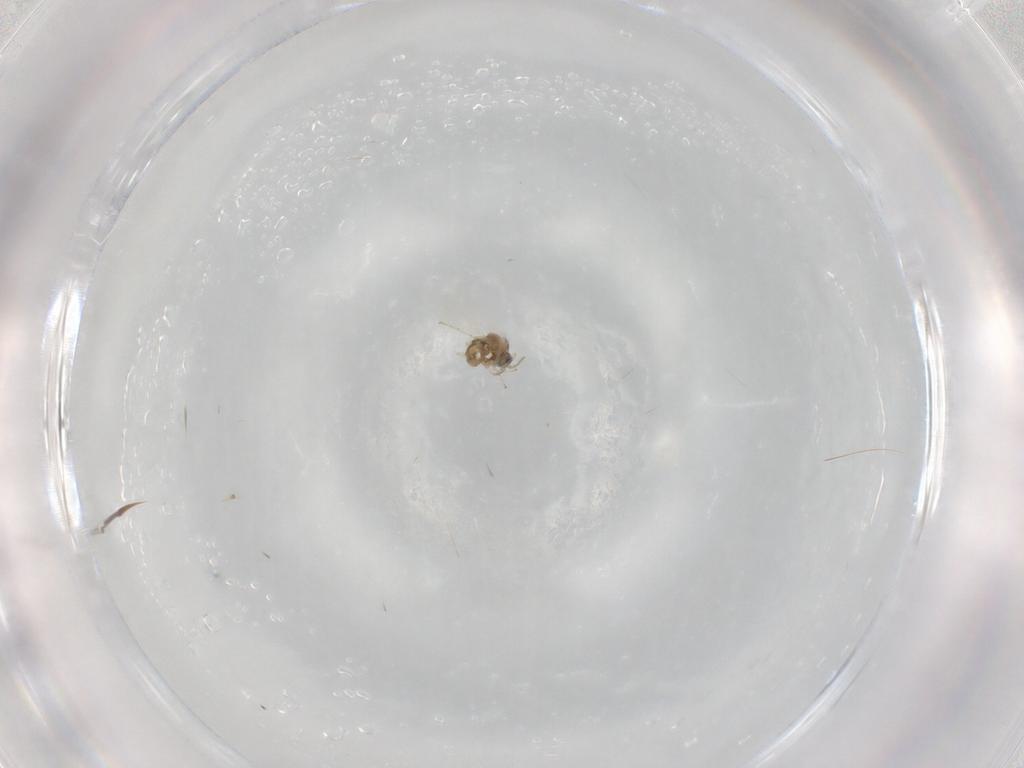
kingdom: Animalia
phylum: Arthropoda
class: Insecta
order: Diptera
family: Cecidomyiidae
